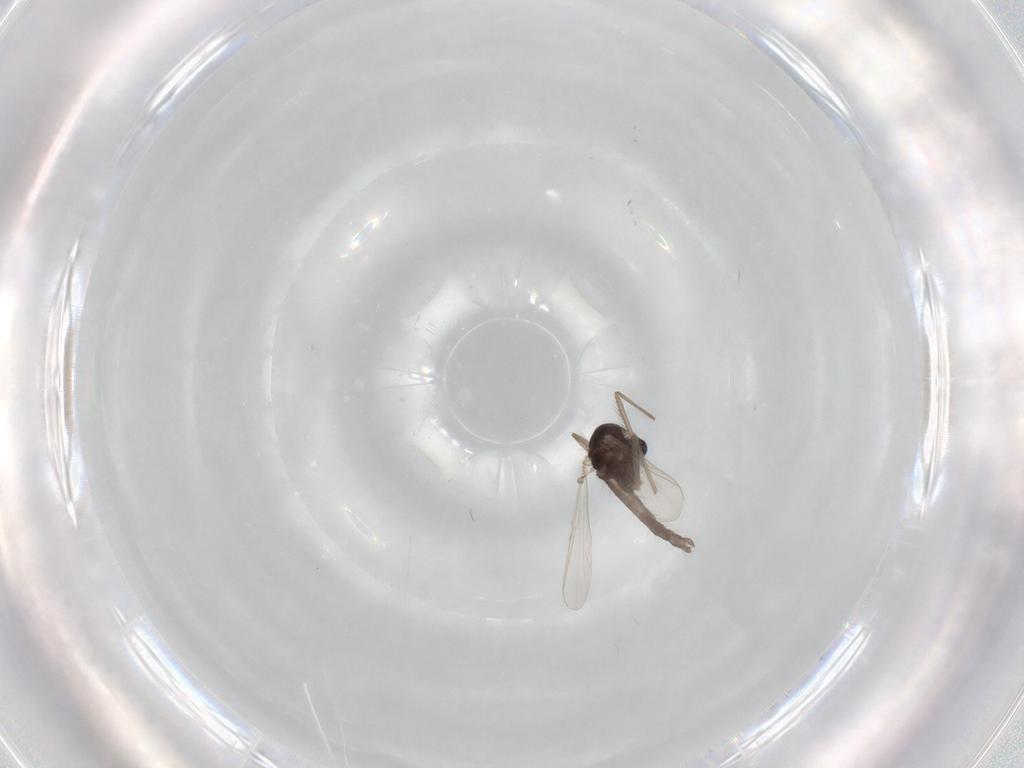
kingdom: Animalia
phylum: Arthropoda
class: Insecta
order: Diptera
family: Chironomidae
